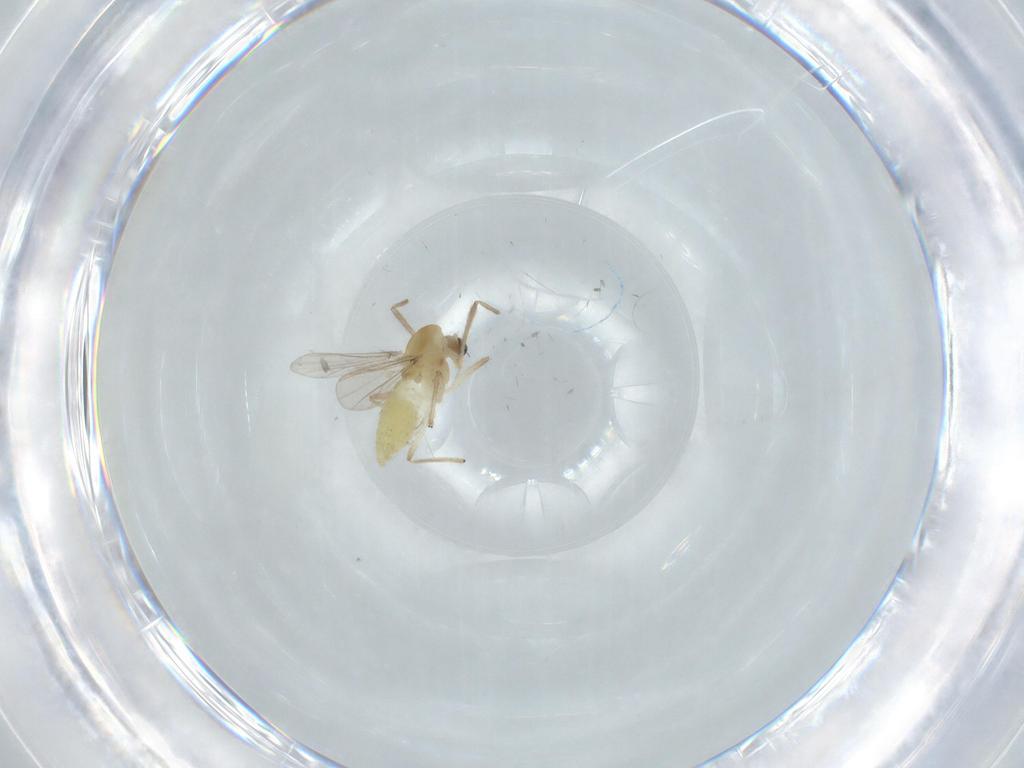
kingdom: Animalia
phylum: Arthropoda
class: Insecta
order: Diptera
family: Chironomidae
